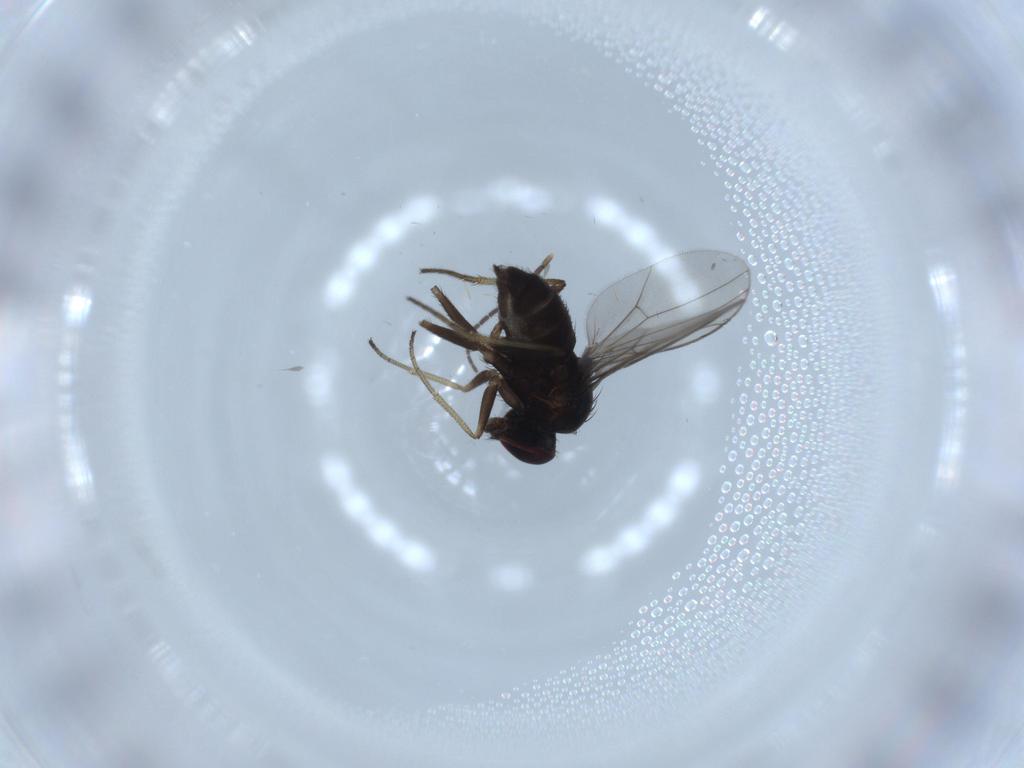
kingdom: Animalia
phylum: Arthropoda
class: Insecta
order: Diptera
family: Dolichopodidae
